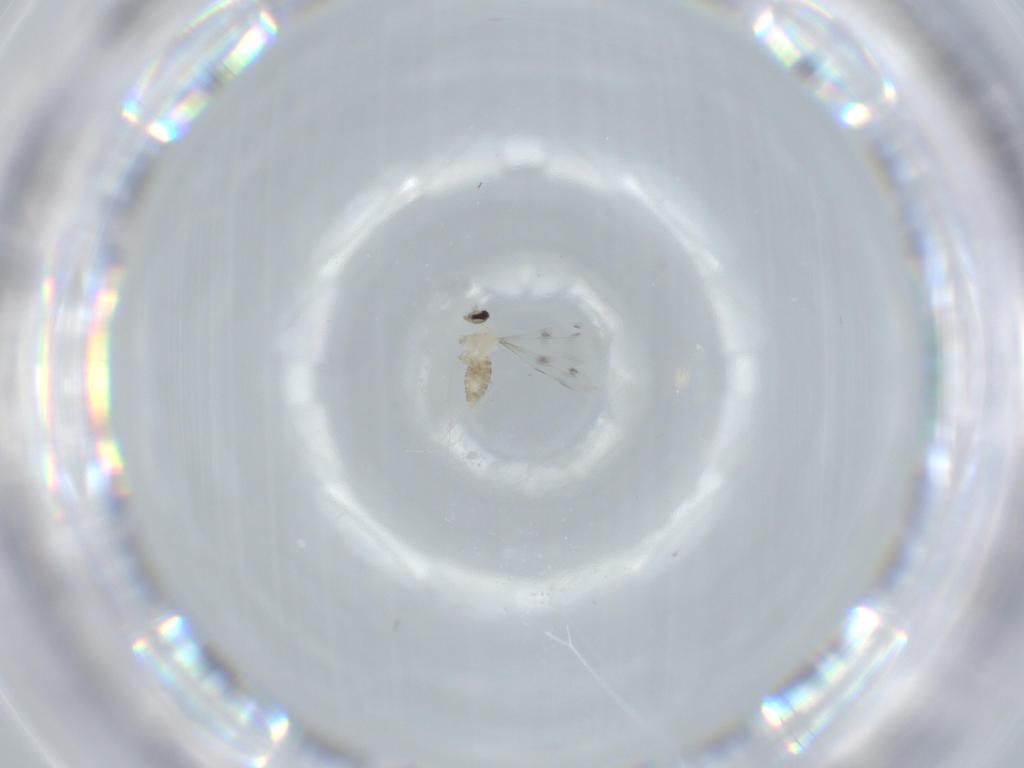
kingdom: Animalia
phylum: Arthropoda
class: Insecta
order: Diptera
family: Cecidomyiidae
